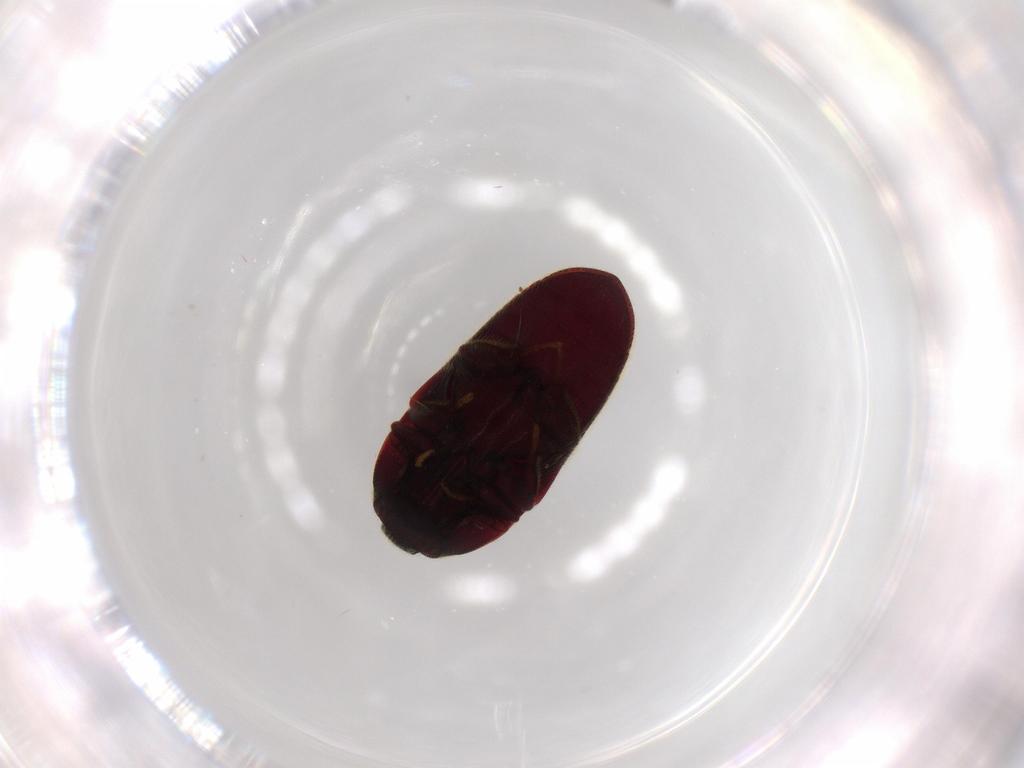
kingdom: Animalia
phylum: Arthropoda
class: Insecta
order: Coleoptera
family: Throscidae
